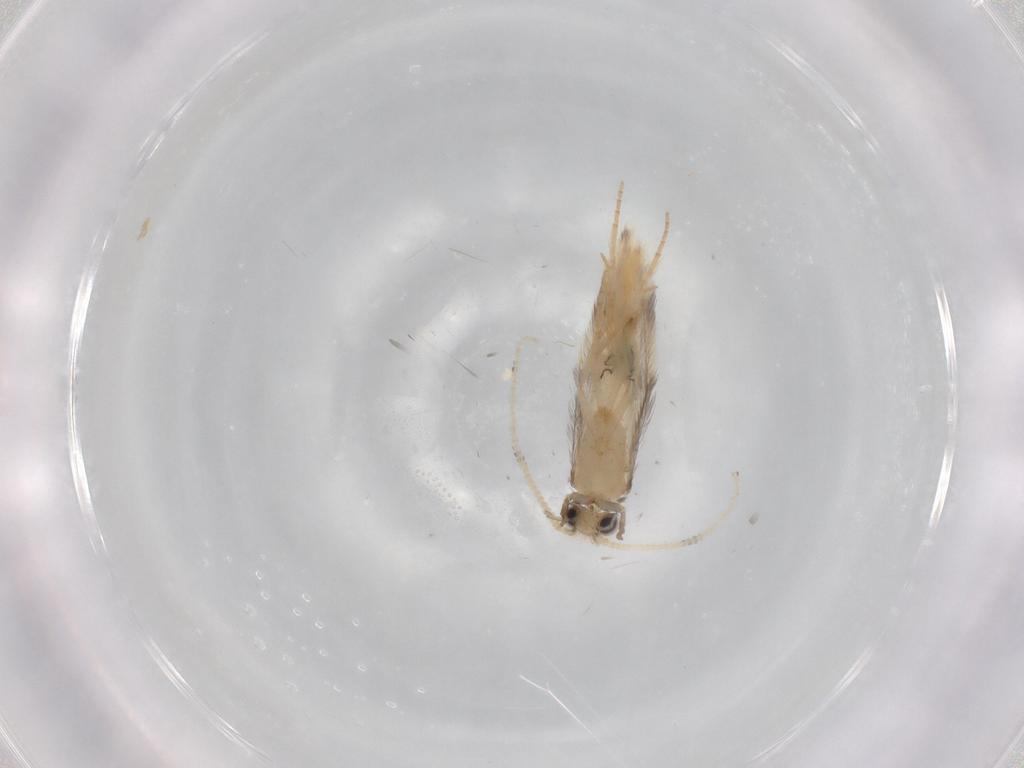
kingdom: Animalia
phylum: Arthropoda
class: Insecta
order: Trichoptera
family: Hydroptilidae
